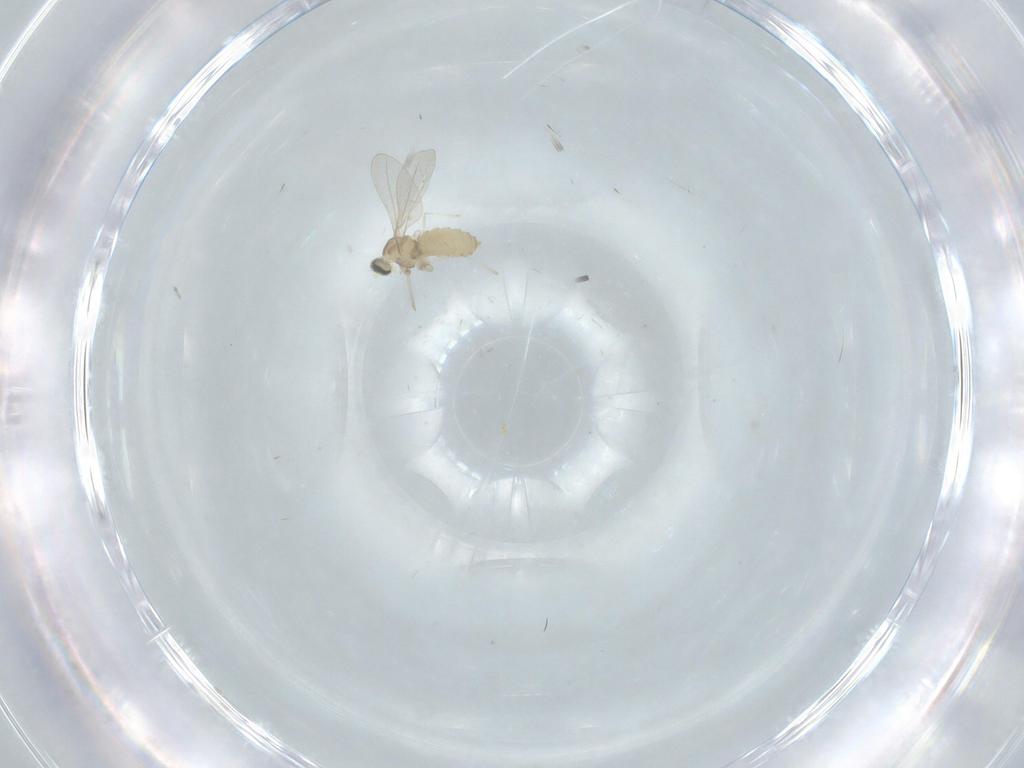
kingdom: Animalia
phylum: Arthropoda
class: Insecta
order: Diptera
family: Chironomidae
